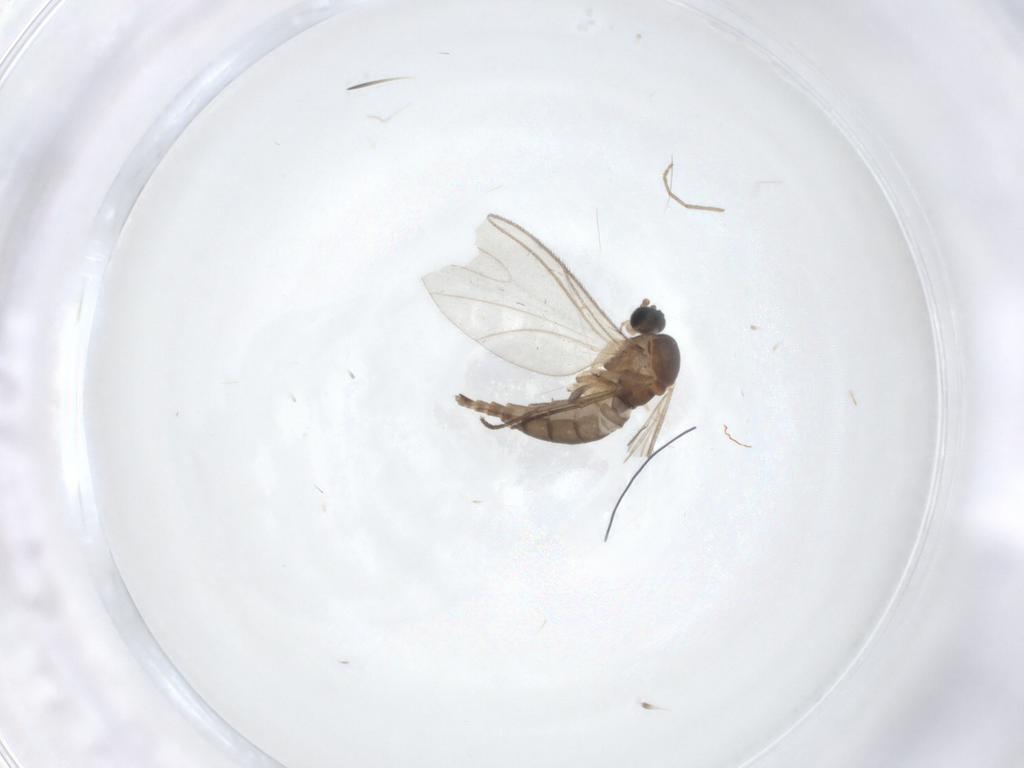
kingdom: Animalia
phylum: Arthropoda
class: Insecta
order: Diptera
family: Sciaridae
